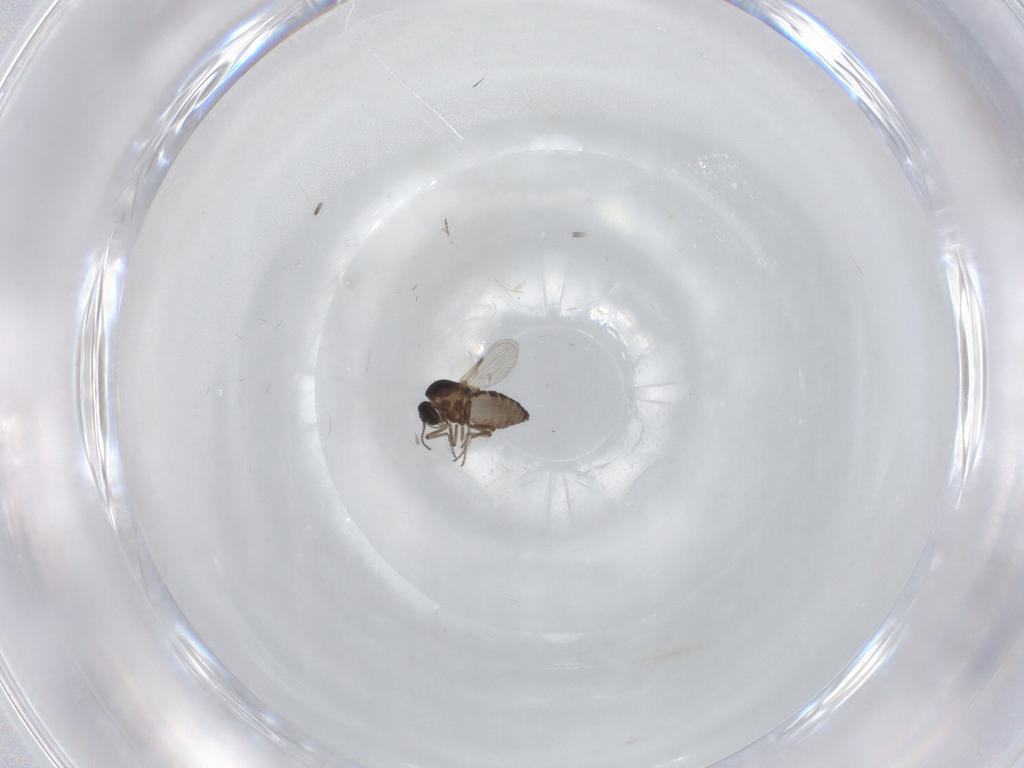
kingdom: Animalia
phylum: Arthropoda
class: Insecta
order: Diptera
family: Ceratopogonidae
